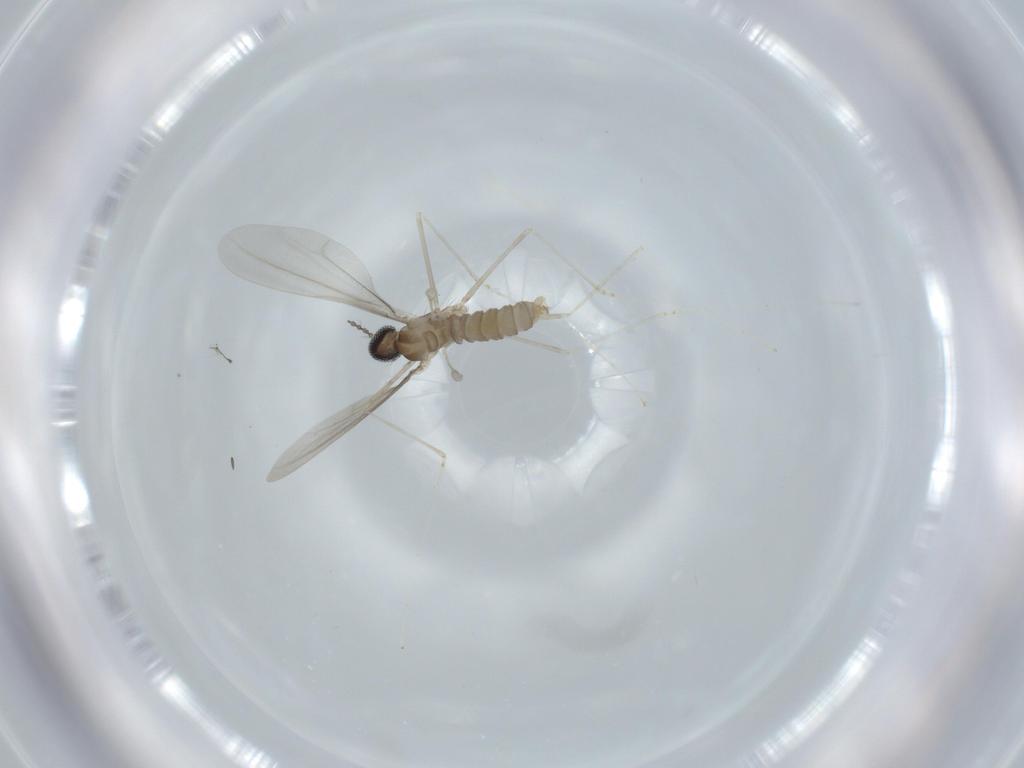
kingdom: Animalia
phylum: Arthropoda
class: Insecta
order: Diptera
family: Cecidomyiidae
